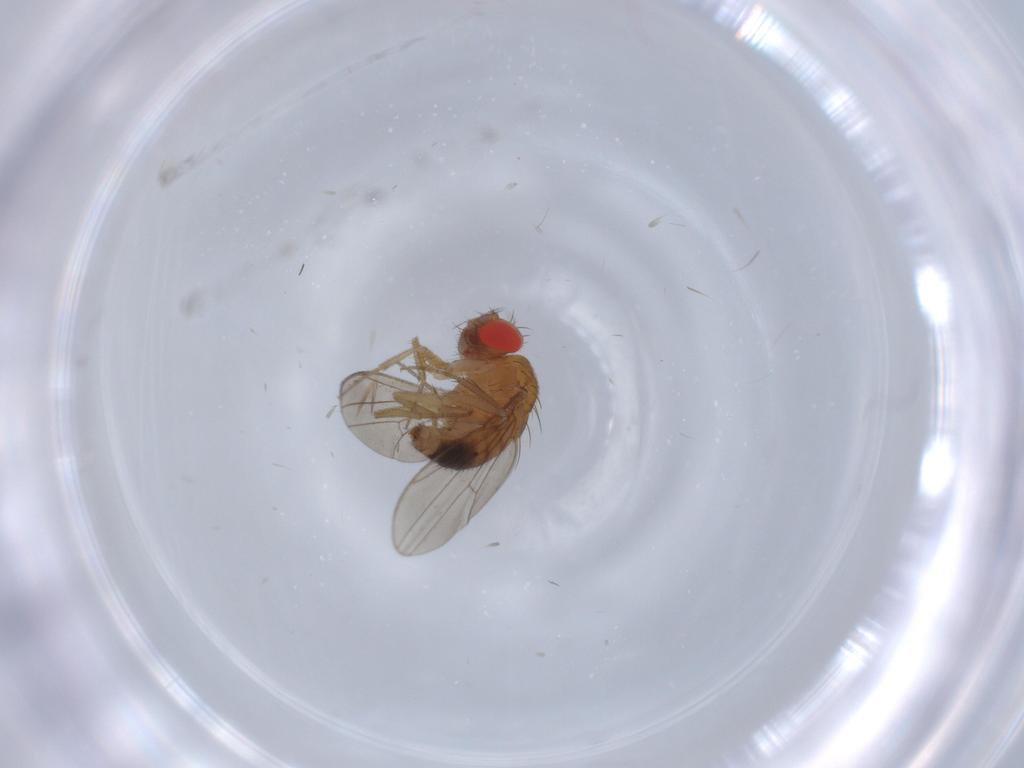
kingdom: Animalia
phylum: Arthropoda
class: Insecta
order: Diptera
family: Drosophilidae
